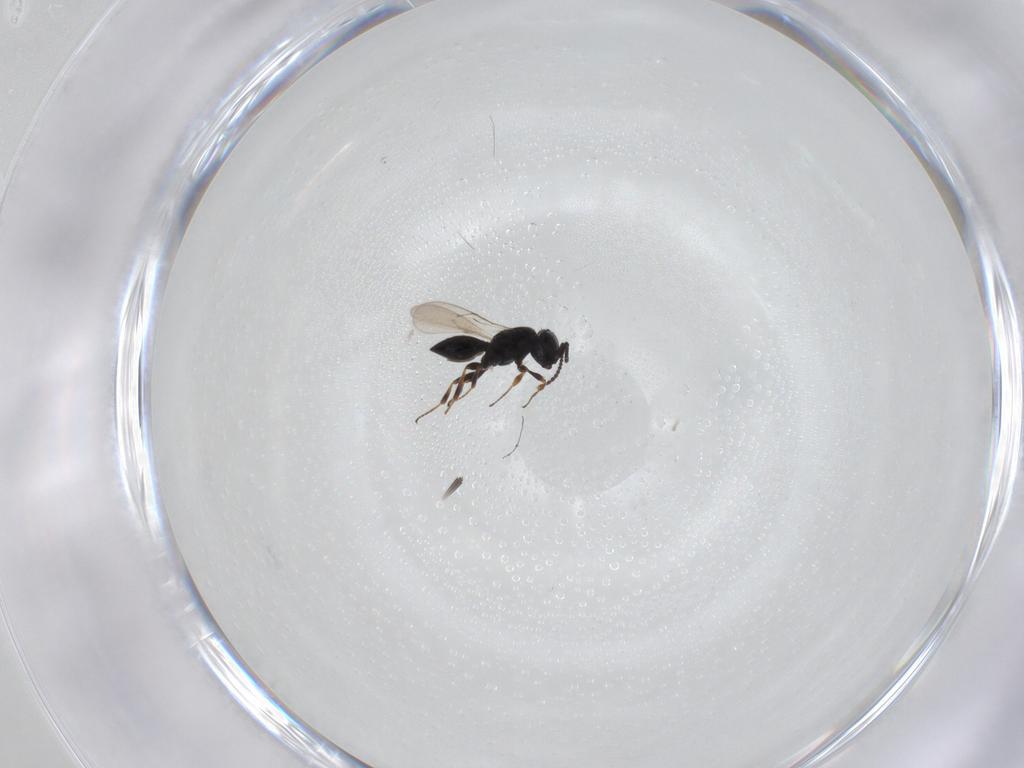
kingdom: Animalia
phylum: Arthropoda
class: Insecta
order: Hymenoptera
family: Scelionidae
